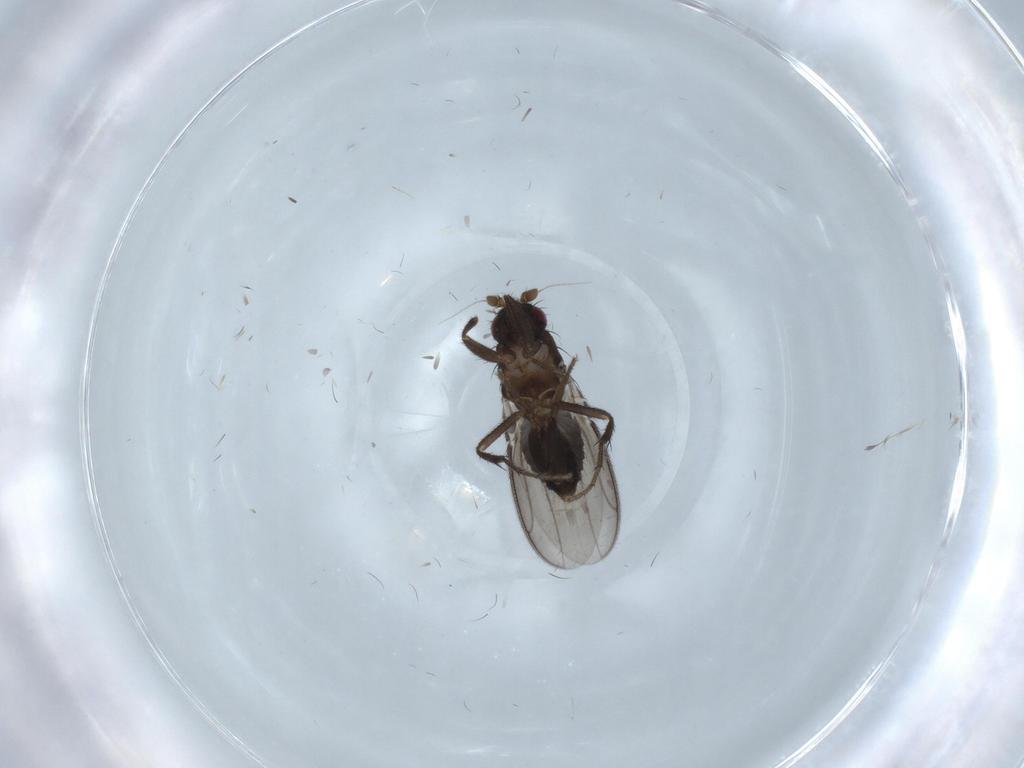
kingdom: Animalia
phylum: Arthropoda
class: Insecta
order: Diptera
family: Sphaeroceridae
